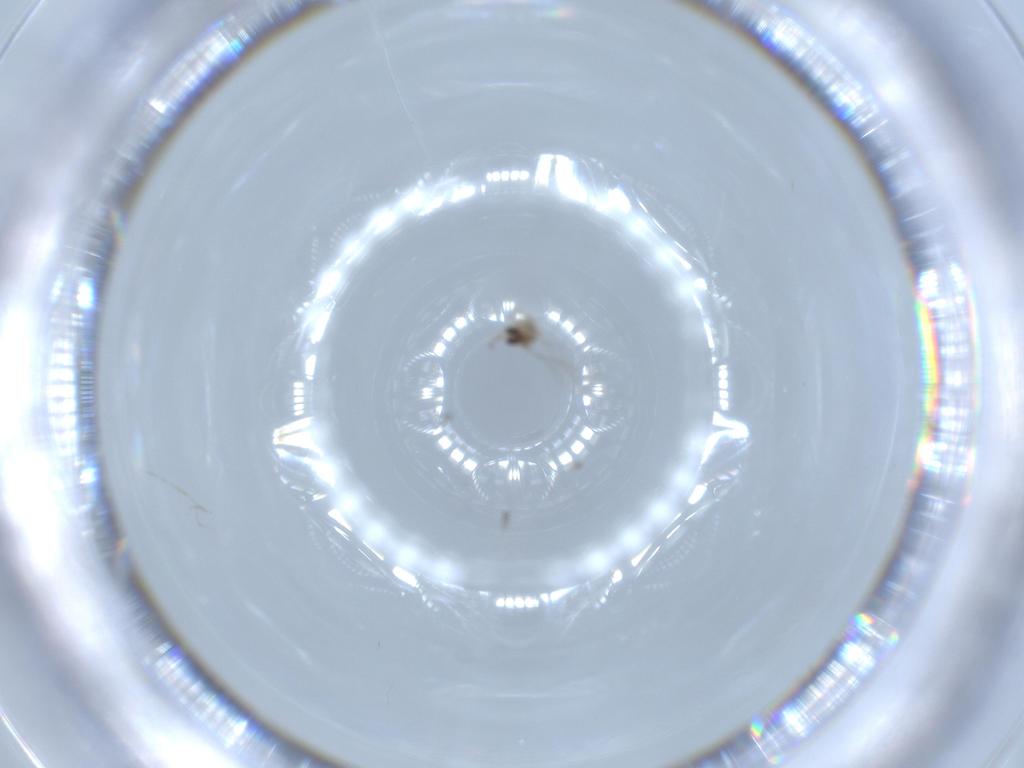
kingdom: Animalia
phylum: Arthropoda
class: Insecta
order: Diptera
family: Cecidomyiidae
